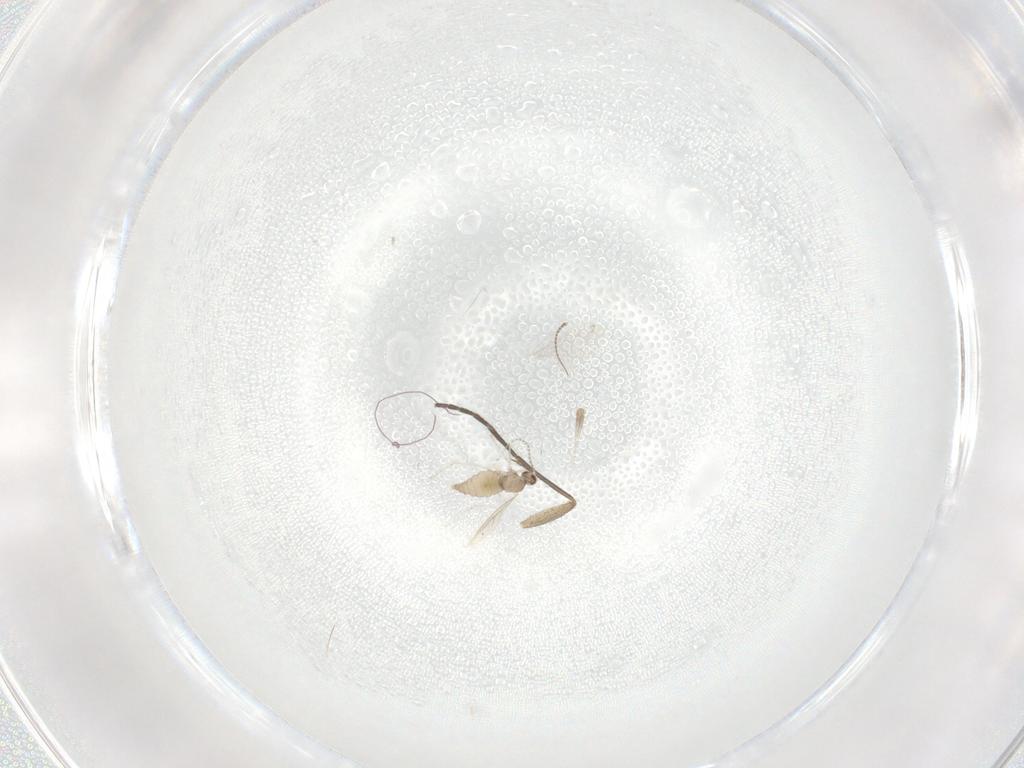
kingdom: Animalia
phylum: Arthropoda
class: Insecta
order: Diptera
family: Cecidomyiidae
